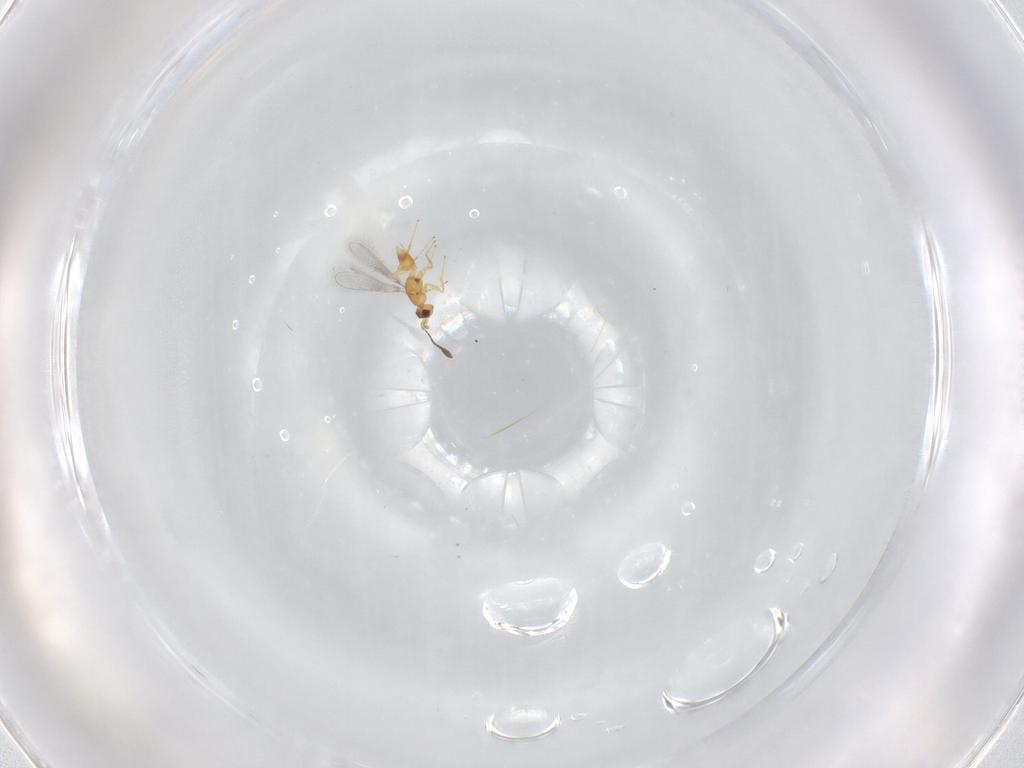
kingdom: Animalia
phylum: Arthropoda
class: Insecta
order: Hymenoptera
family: Mymaridae
